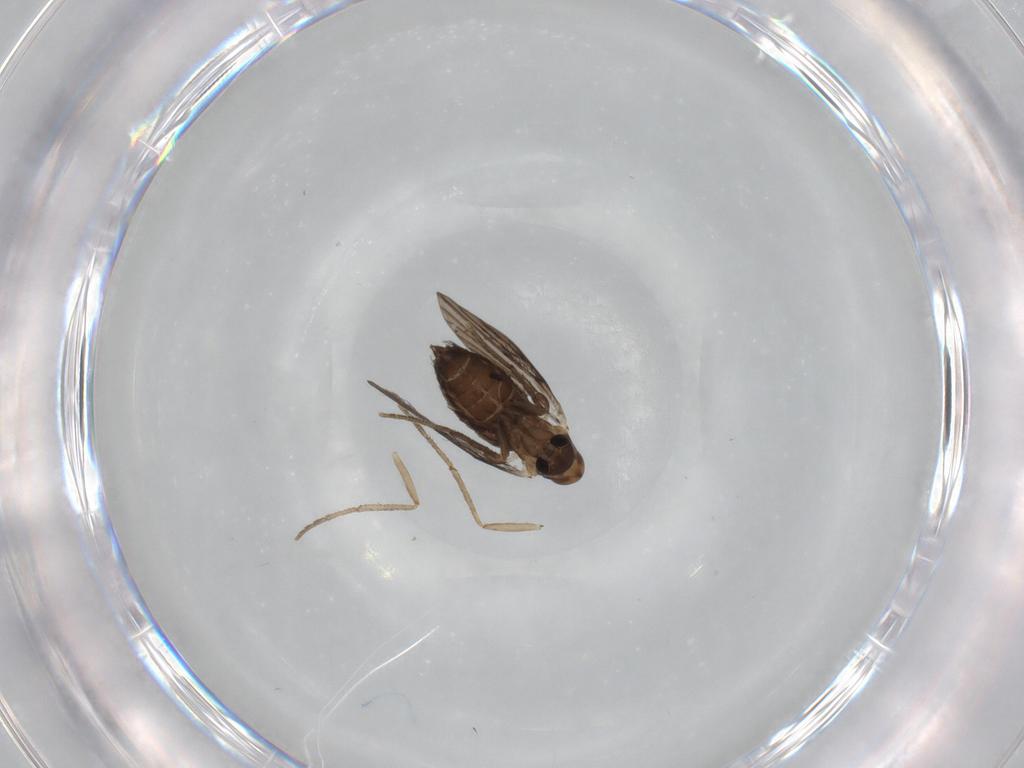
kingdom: Animalia
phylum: Arthropoda
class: Insecta
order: Diptera
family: Psychodidae
